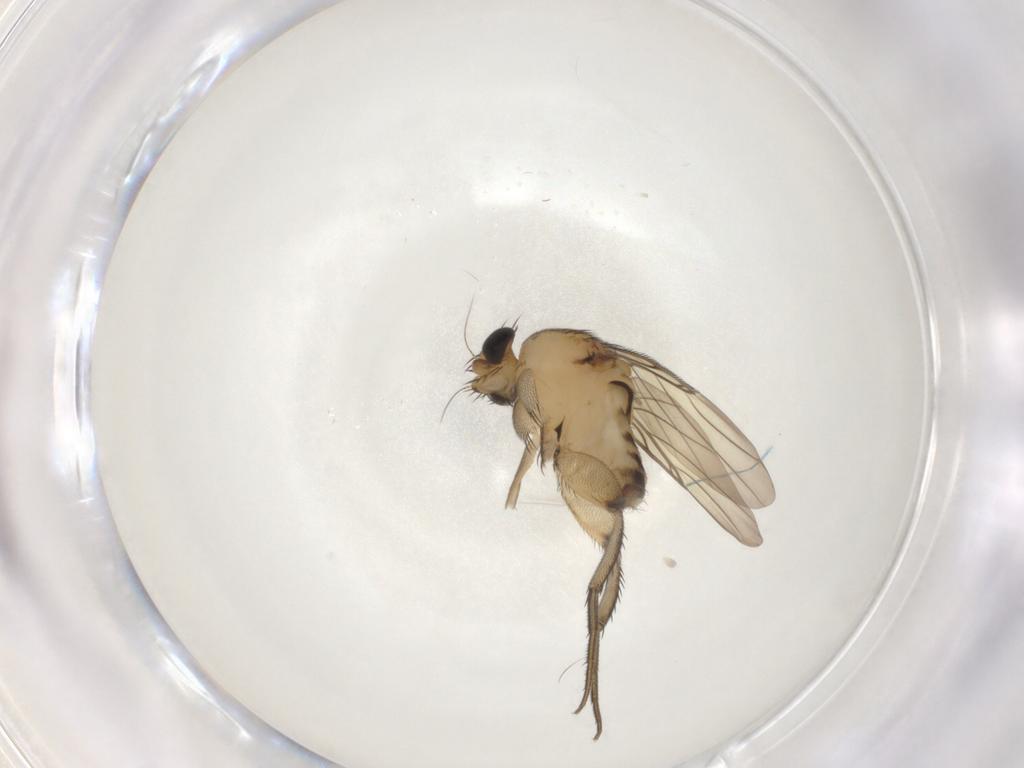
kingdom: Animalia
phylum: Arthropoda
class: Insecta
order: Diptera
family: Phoridae
